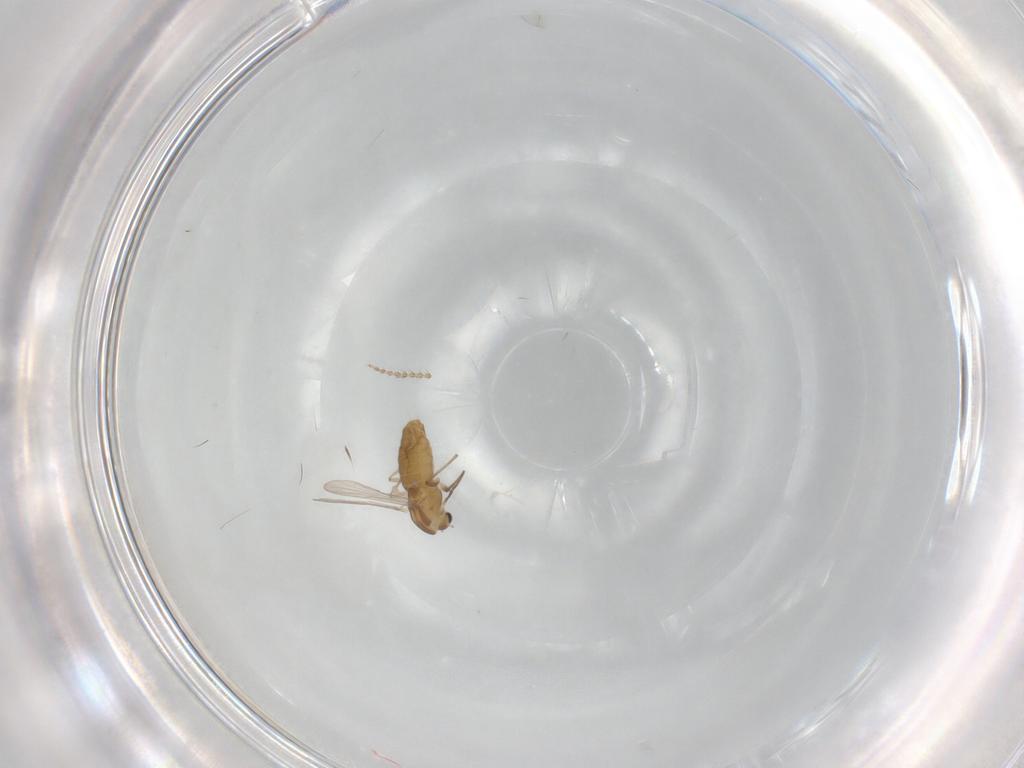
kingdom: Animalia
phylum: Arthropoda
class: Insecta
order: Diptera
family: Chironomidae
